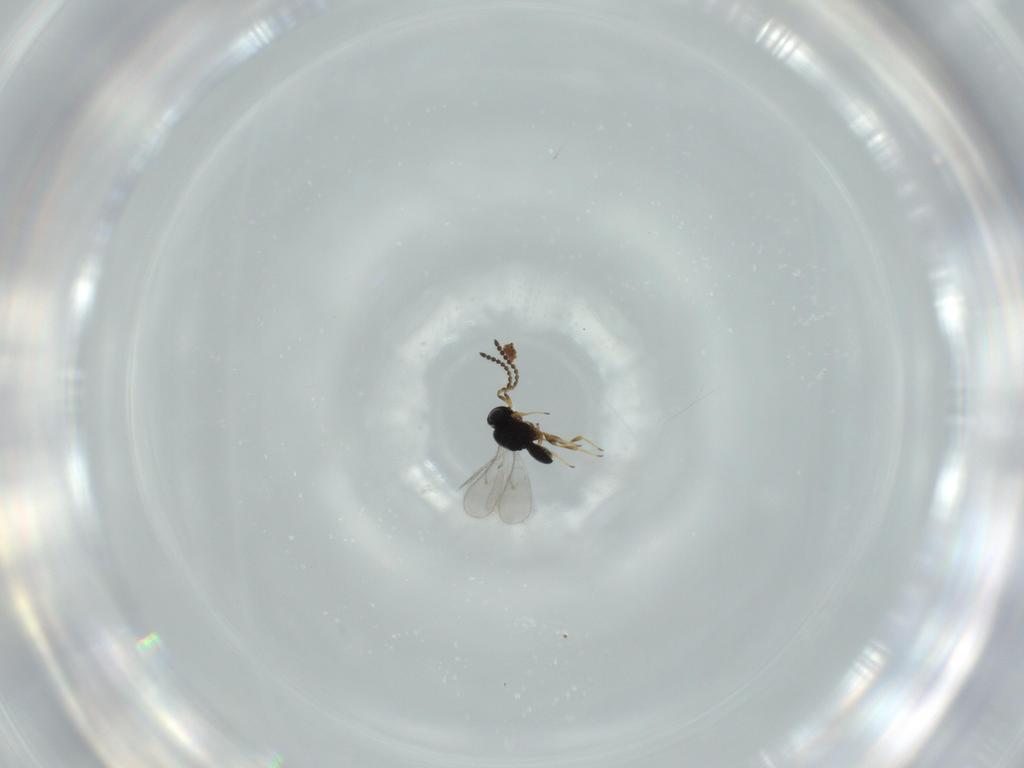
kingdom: Animalia
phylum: Arthropoda
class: Insecta
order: Hymenoptera
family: Scelionidae
